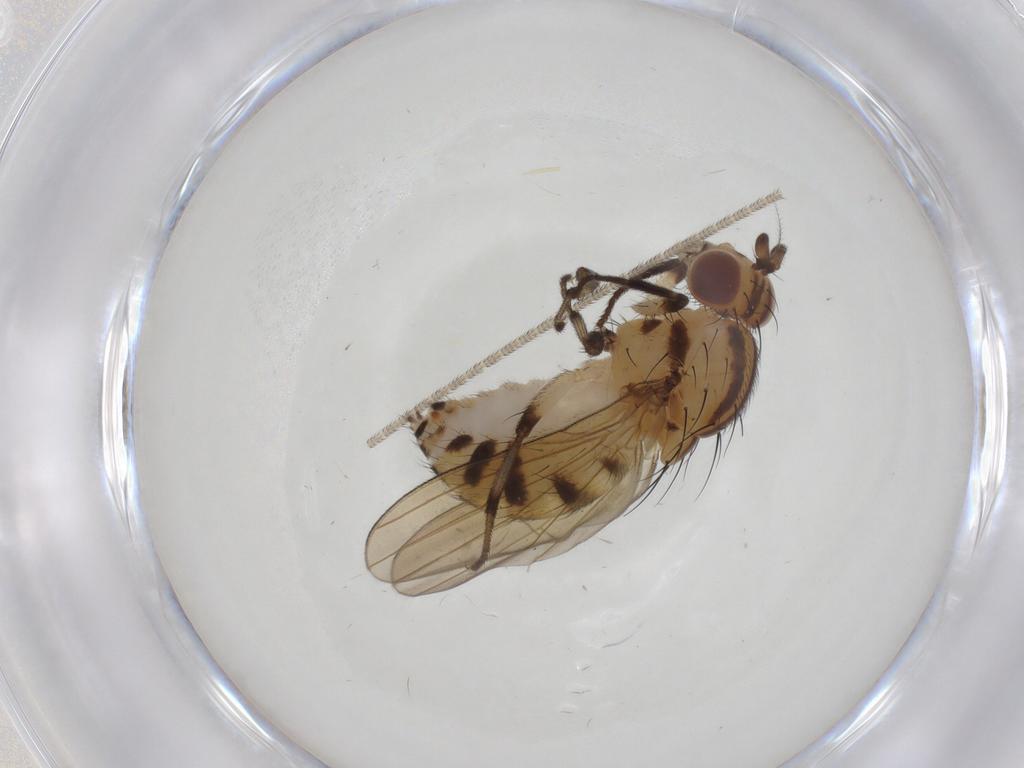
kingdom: Animalia
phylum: Arthropoda
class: Insecta
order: Diptera
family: Lauxaniidae
